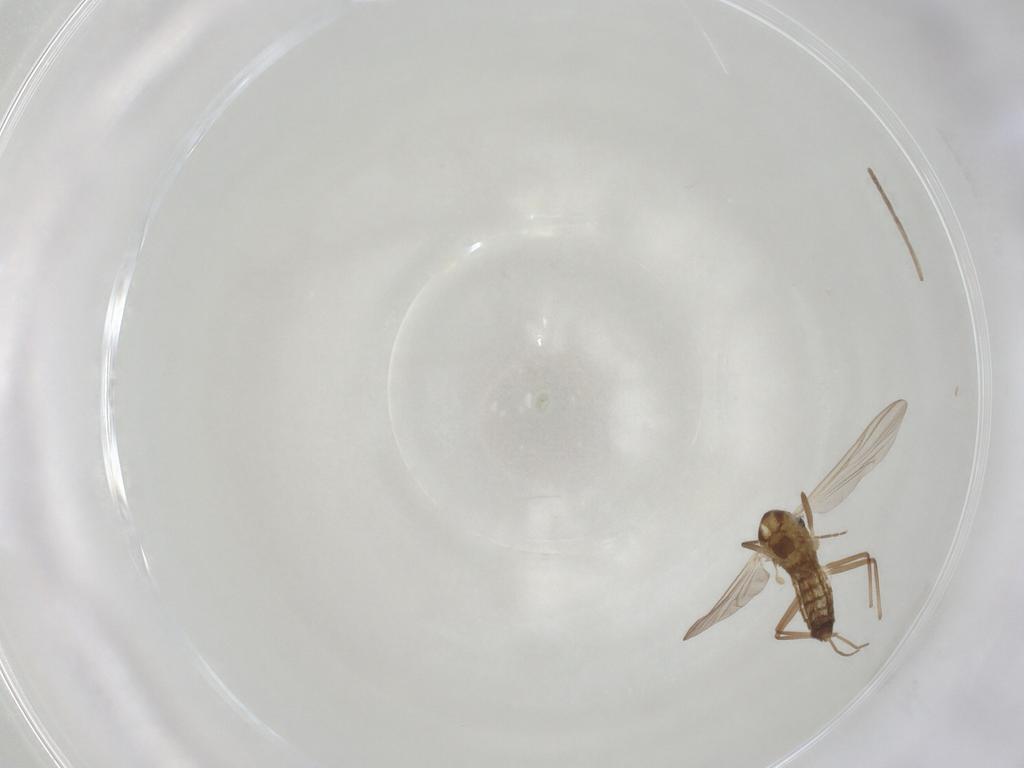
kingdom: Animalia
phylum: Arthropoda
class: Insecta
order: Diptera
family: Chironomidae
